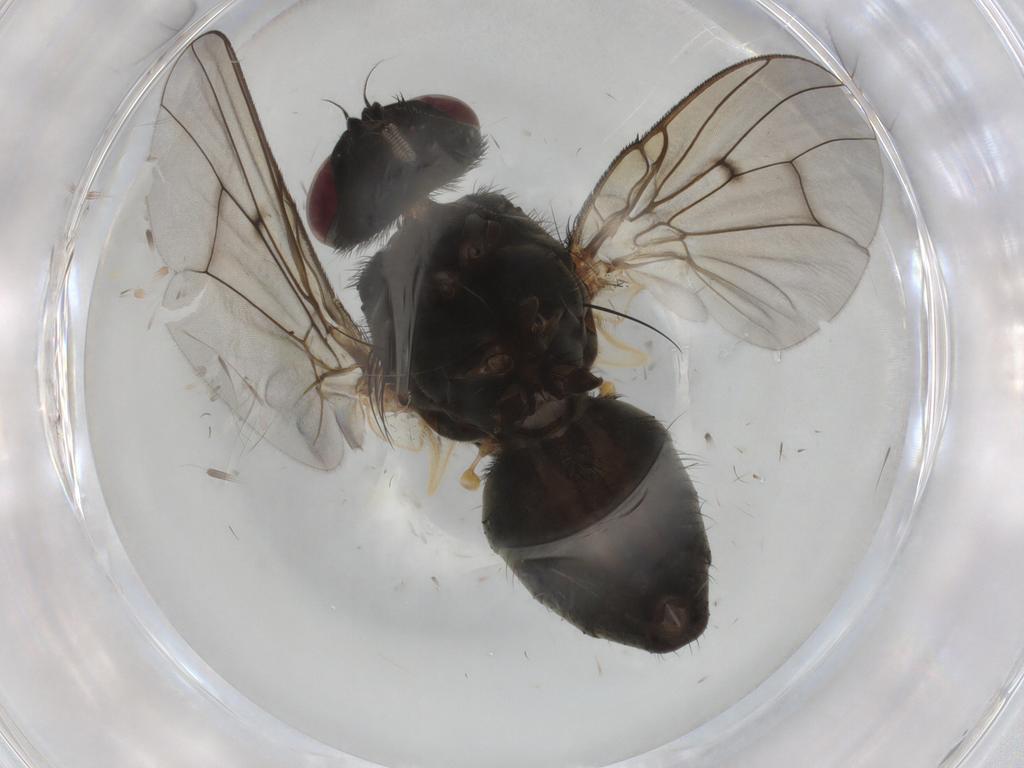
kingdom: Animalia
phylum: Arthropoda
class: Insecta
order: Diptera
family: Muscidae
